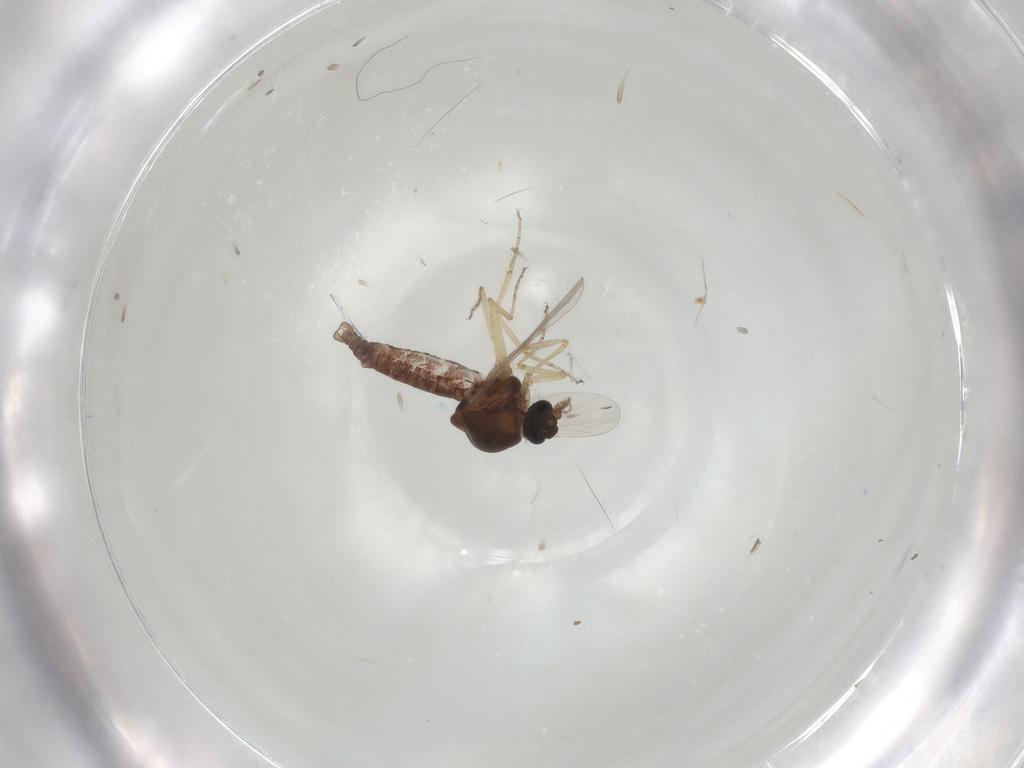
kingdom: Animalia
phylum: Arthropoda
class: Insecta
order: Diptera
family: Ceratopogonidae
